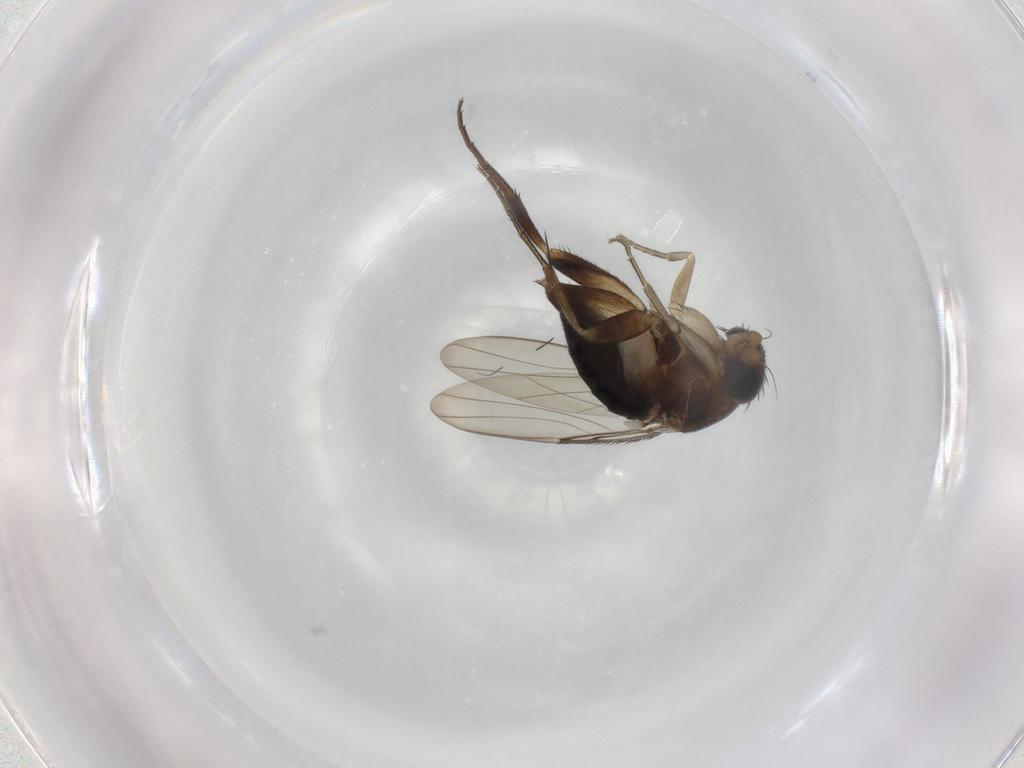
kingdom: Animalia
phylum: Arthropoda
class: Insecta
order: Diptera
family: Phoridae
